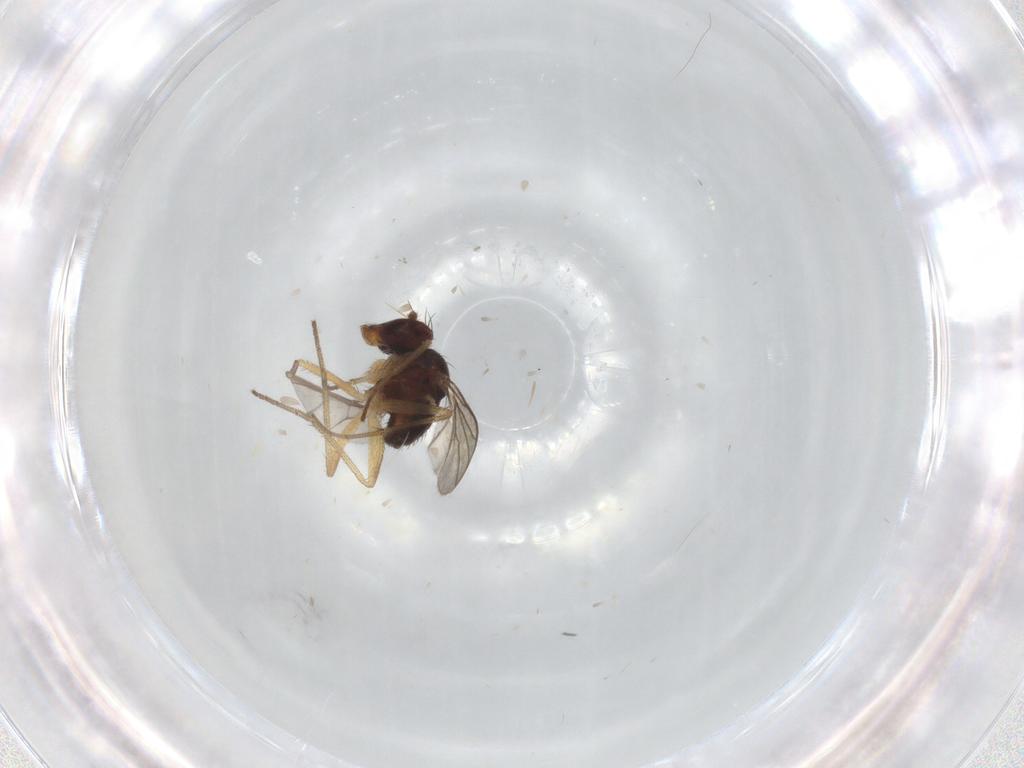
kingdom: Animalia
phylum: Arthropoda
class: Insecta
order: Diptera
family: Dolichopodidae
